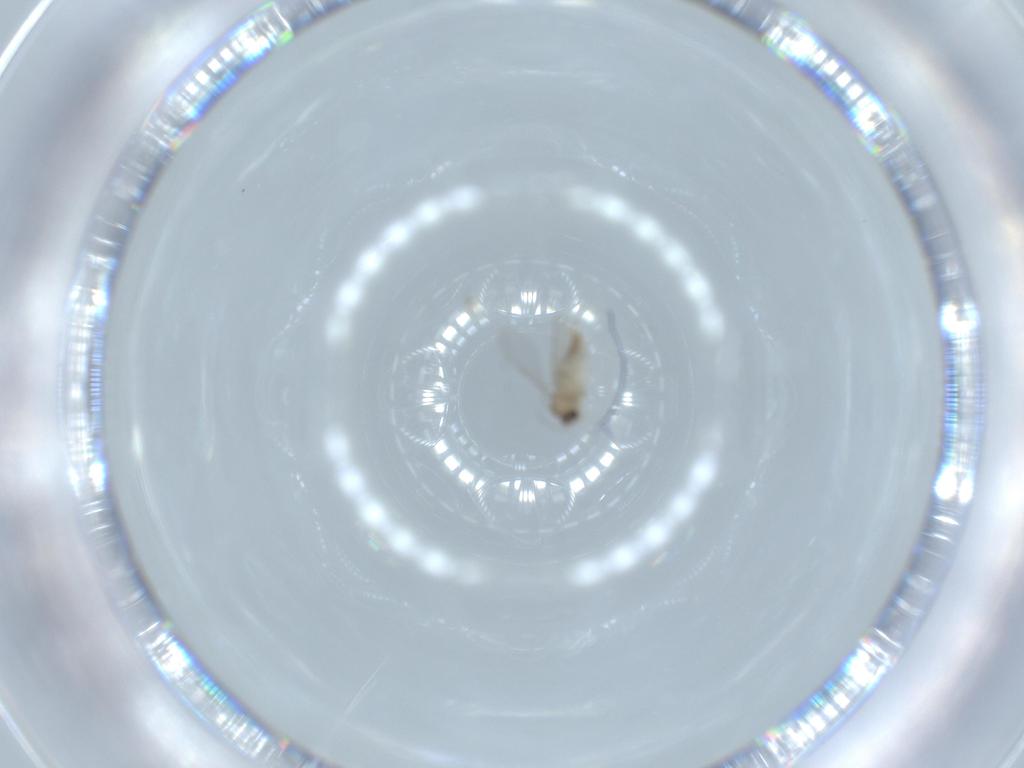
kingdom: Animalia
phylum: Arthropoda
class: Insecta
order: Diptera
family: Cecidomyiidae
